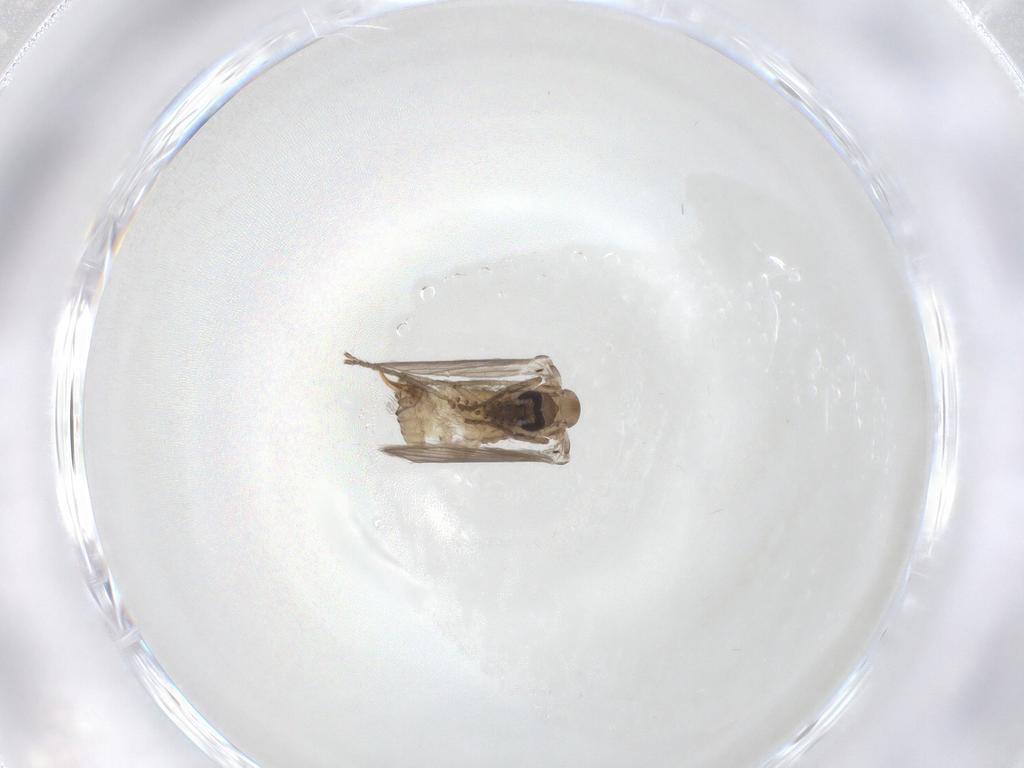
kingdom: Animalia
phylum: Arthropoda
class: Insecta
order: Diptera
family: Psychodidae
